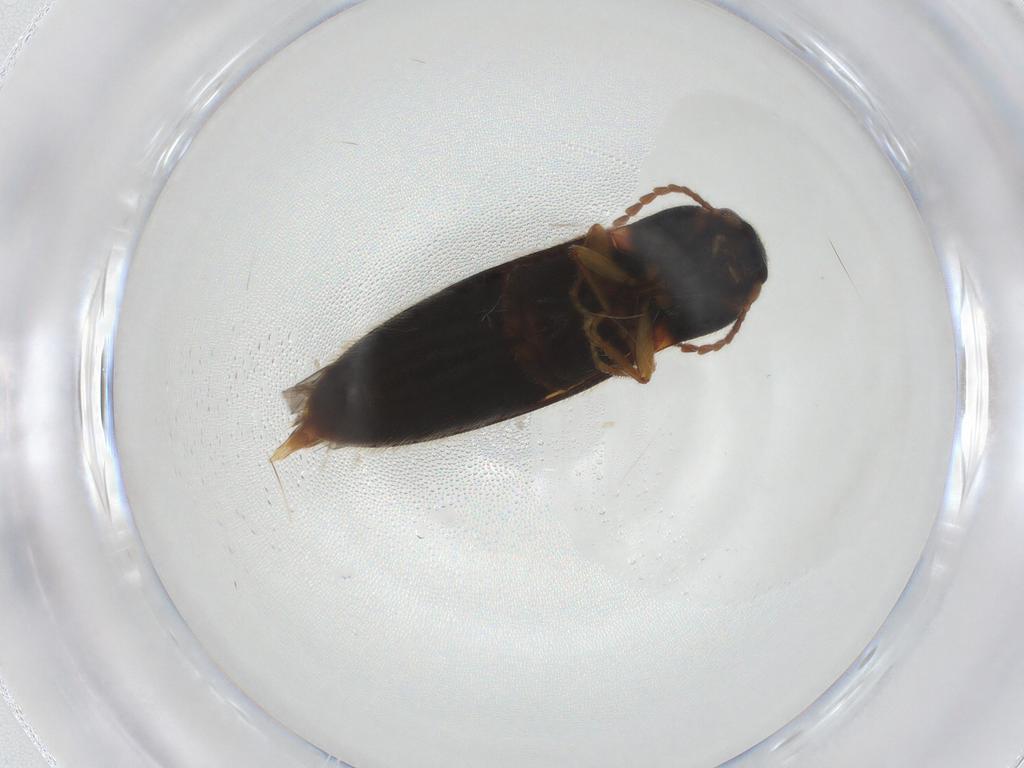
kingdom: Animalia
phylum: Arthropoda
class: Insecta
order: Coleoptera
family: Elateridae
